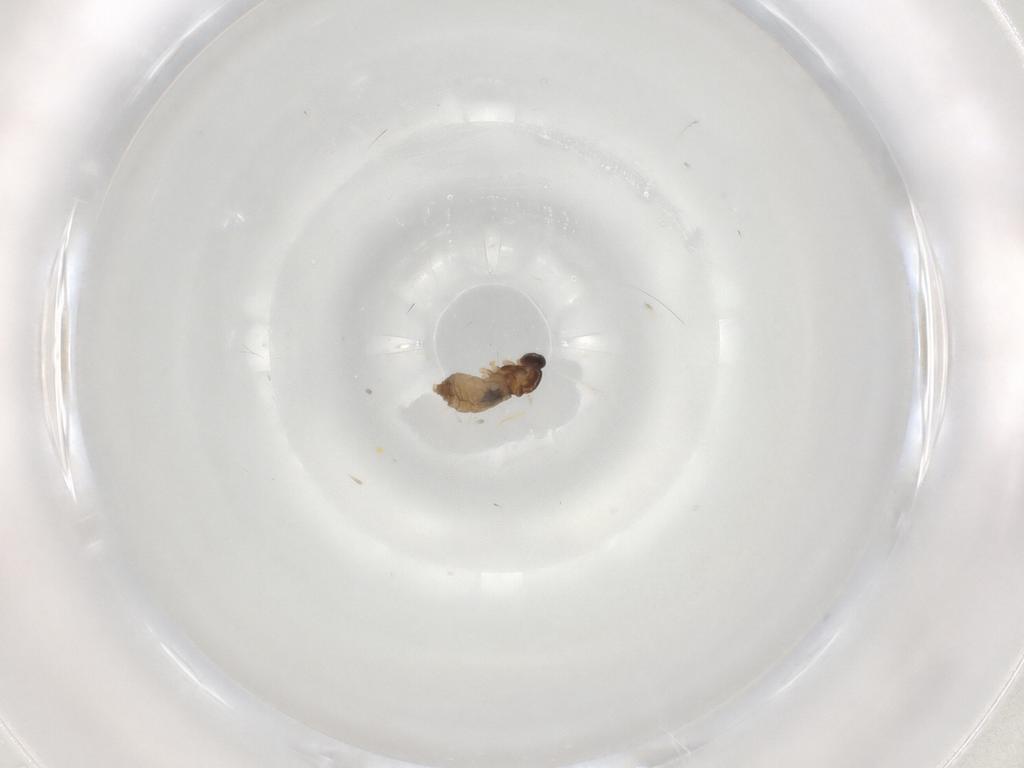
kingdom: Animalia
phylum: Arthropoda
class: Insecta
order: Diptera
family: Cecidomyiidae
